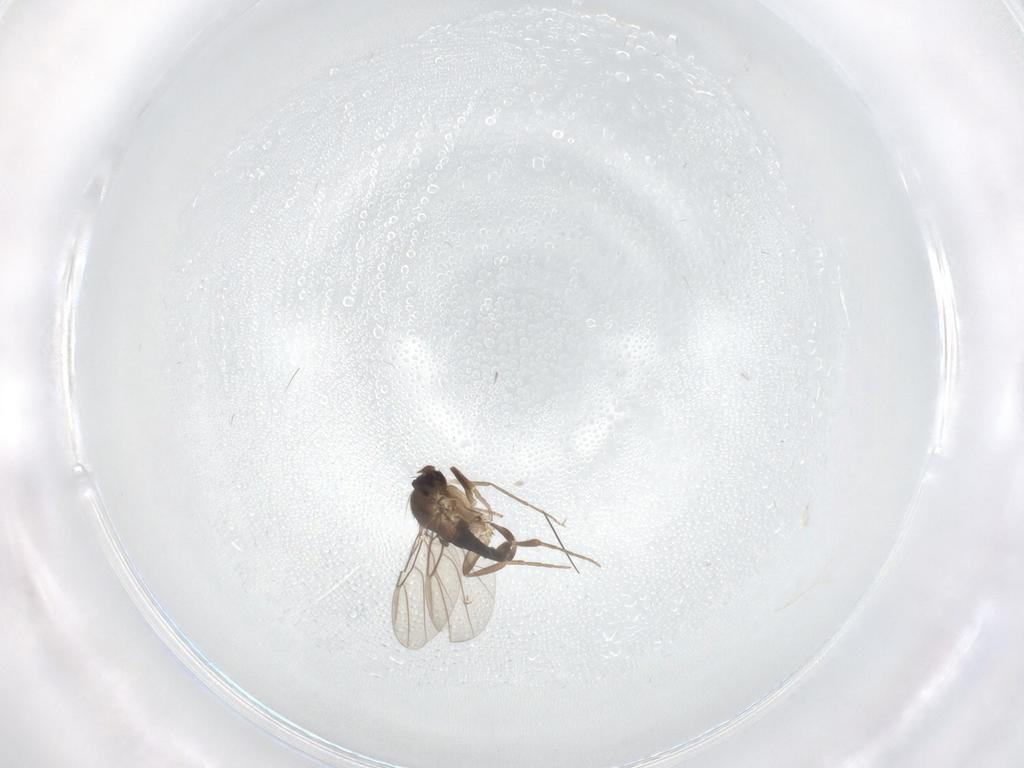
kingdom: Animalia
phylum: Arthropoda
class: Insecta
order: Diptera
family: Phoridae
